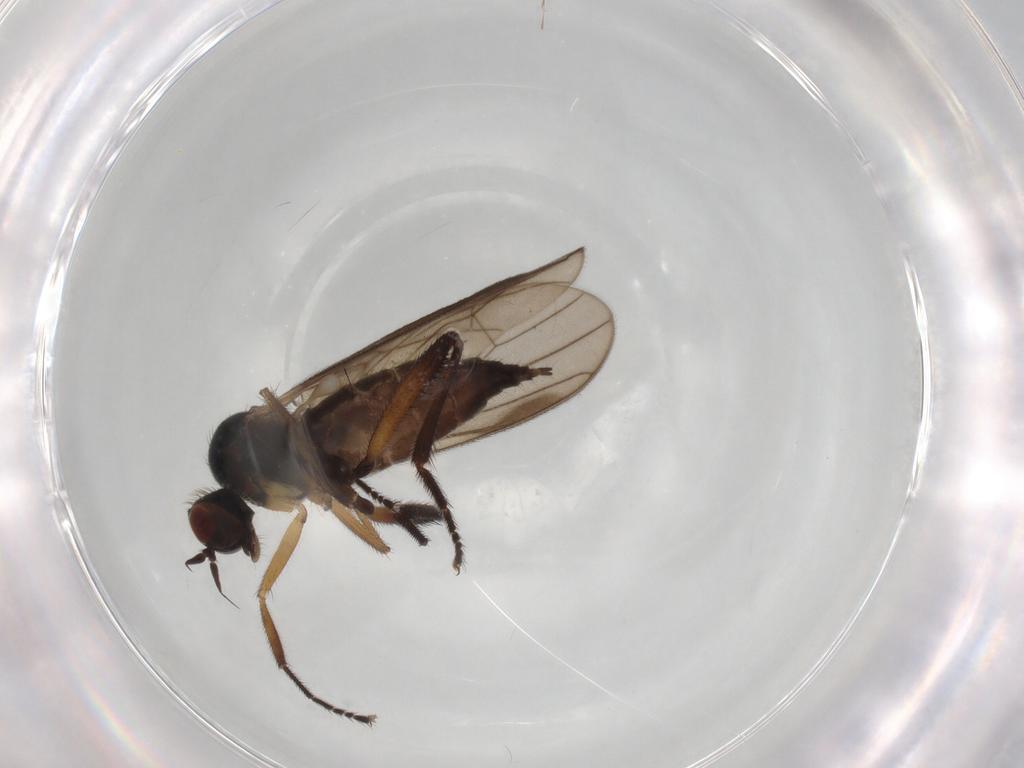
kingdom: Animalia
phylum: Arthropoda
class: Insecta
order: Diptera
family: Hybotidae
